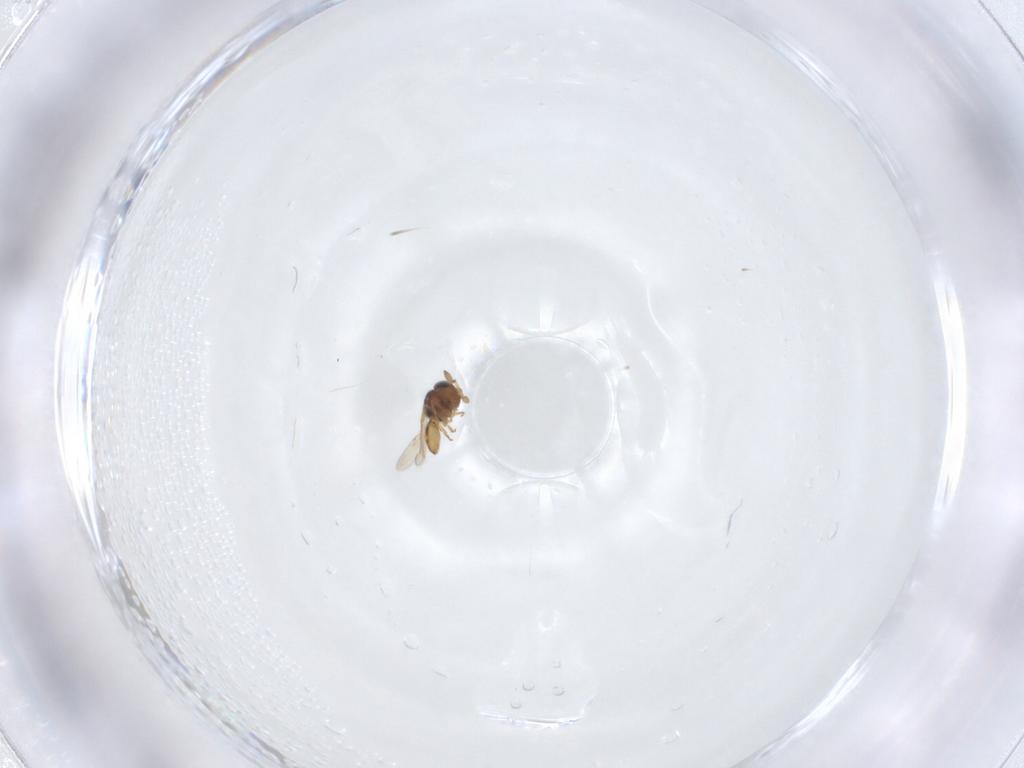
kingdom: Animalia
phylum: Arthropoda
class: Insecta
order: Hymenoptera
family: Scelionidae
